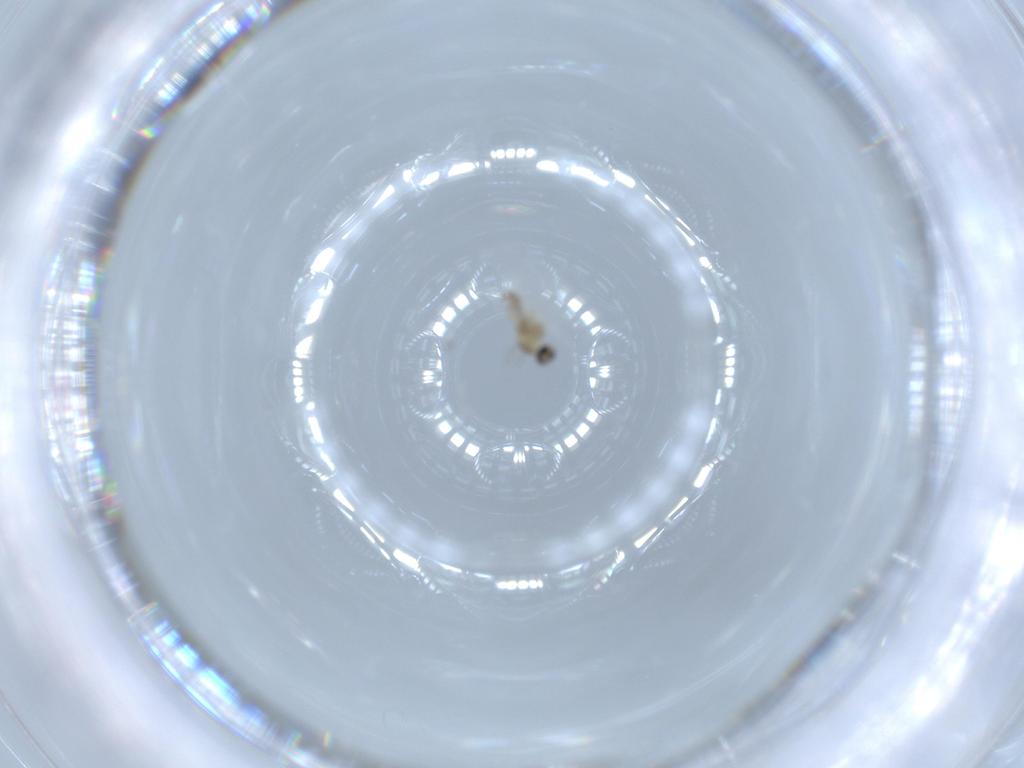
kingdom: Animalia
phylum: Arthropoda
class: Insecta
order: Diptera
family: Cecidomyiidae
